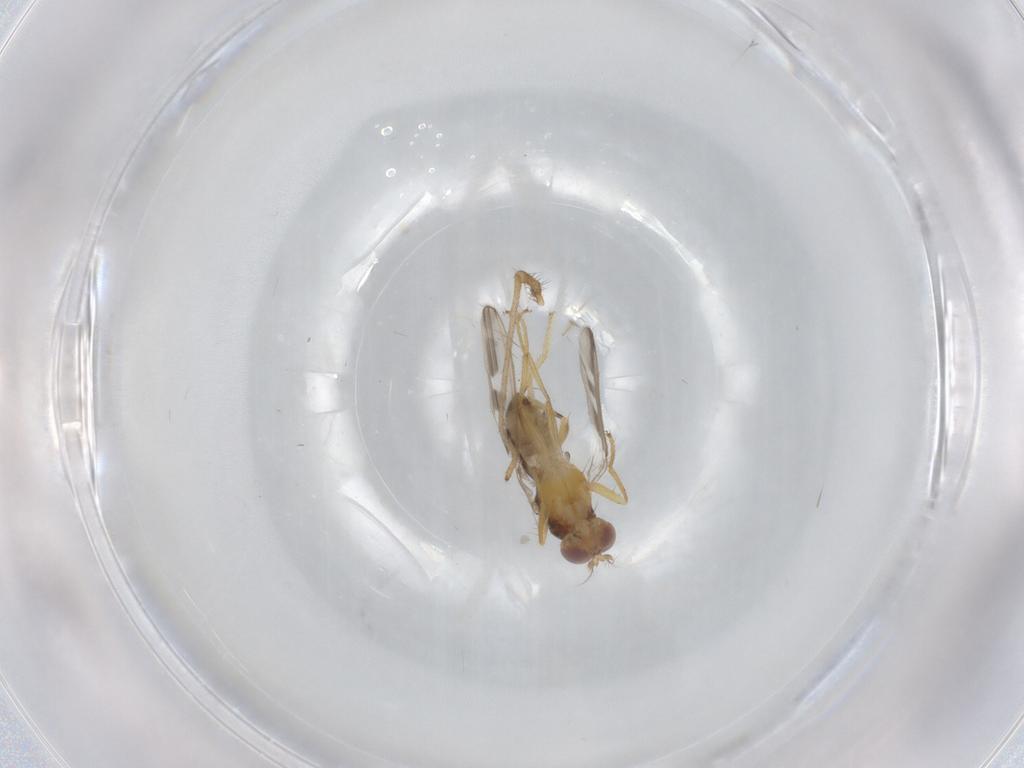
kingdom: Animalia
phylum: Arthropoda
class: Insecta
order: Diptera
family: Periscelididae
